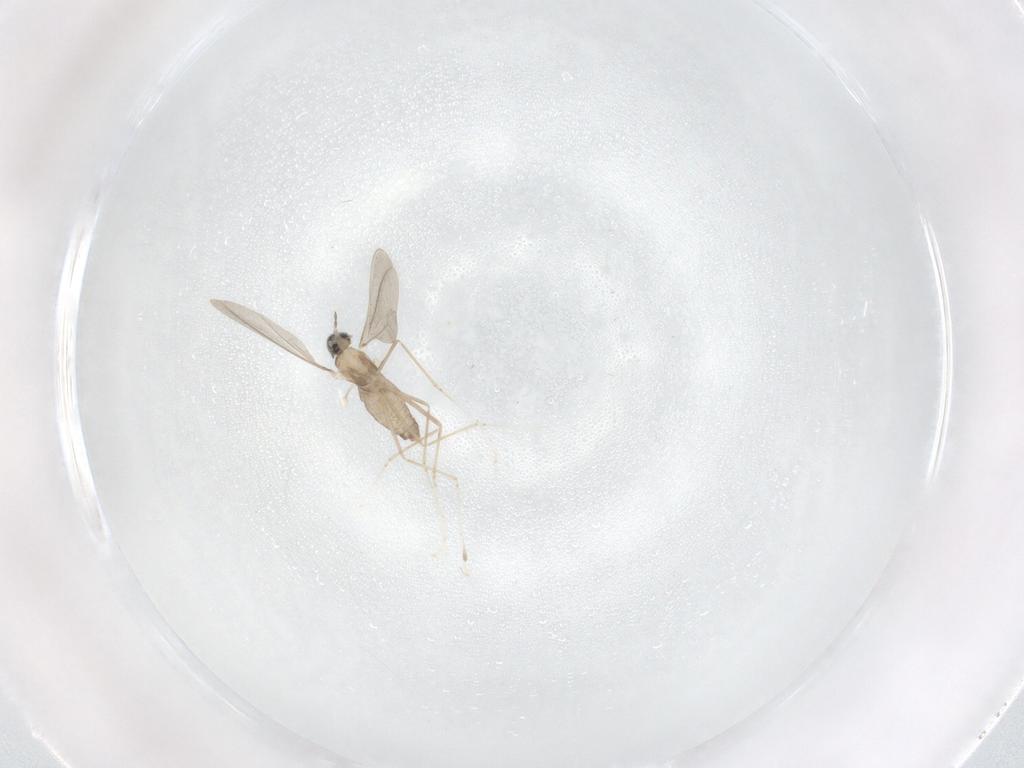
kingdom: Animalia
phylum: Arthropoda
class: Insecta
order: Diptera
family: Cecidomyiidae
